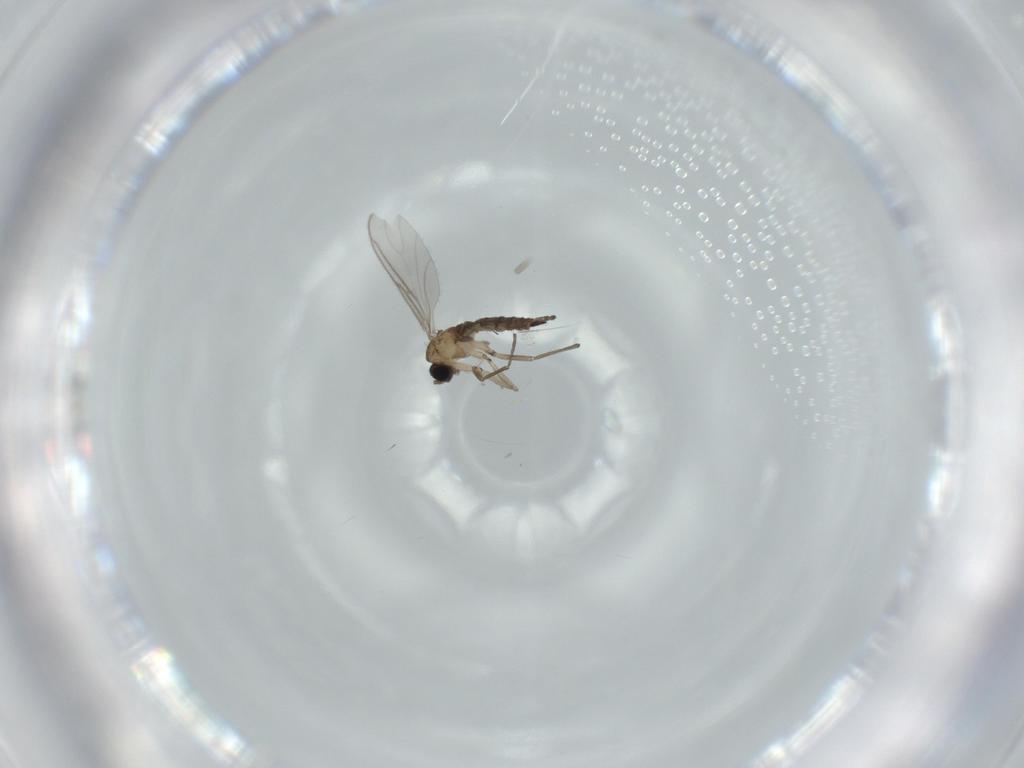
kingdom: Animalia
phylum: Arthropoda
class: Insecta
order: Diptera
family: Sciaridae
